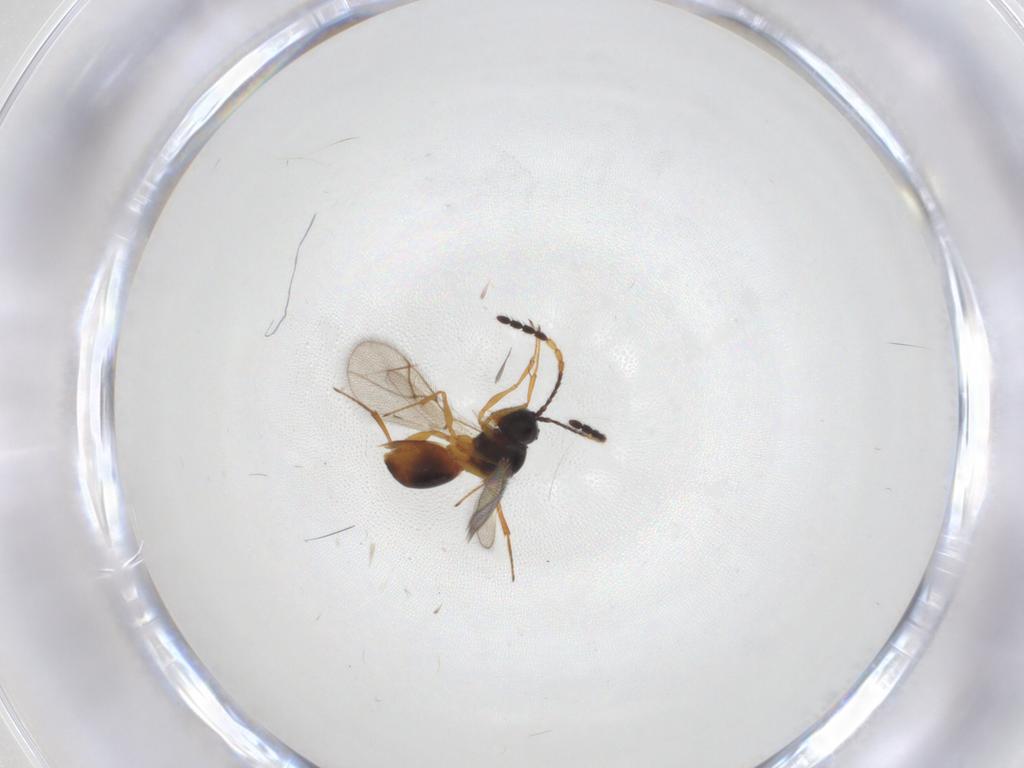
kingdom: Animalia
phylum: Arthropoda
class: Insecta
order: Hymenoptera
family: Figitidae
